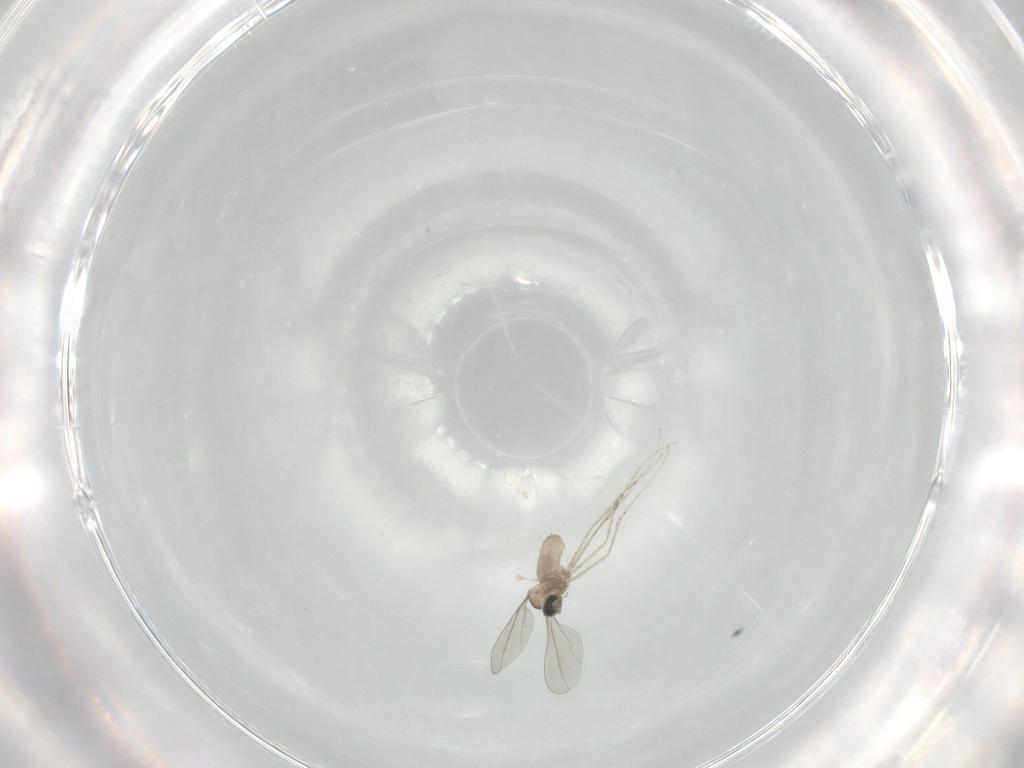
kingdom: Animalia
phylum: Arthropoda
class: Insecta
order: Diptera
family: Cecidomyiidae
